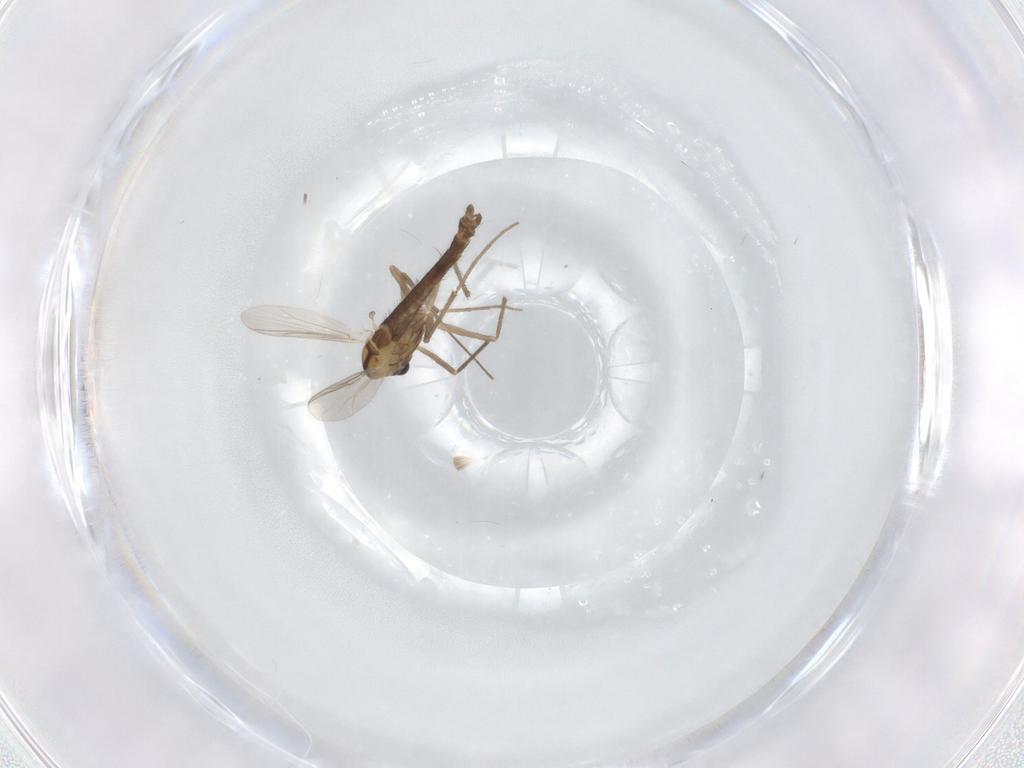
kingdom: Animalia
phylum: Arthropoda
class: Insecta
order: Diptera
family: Chironomidae
